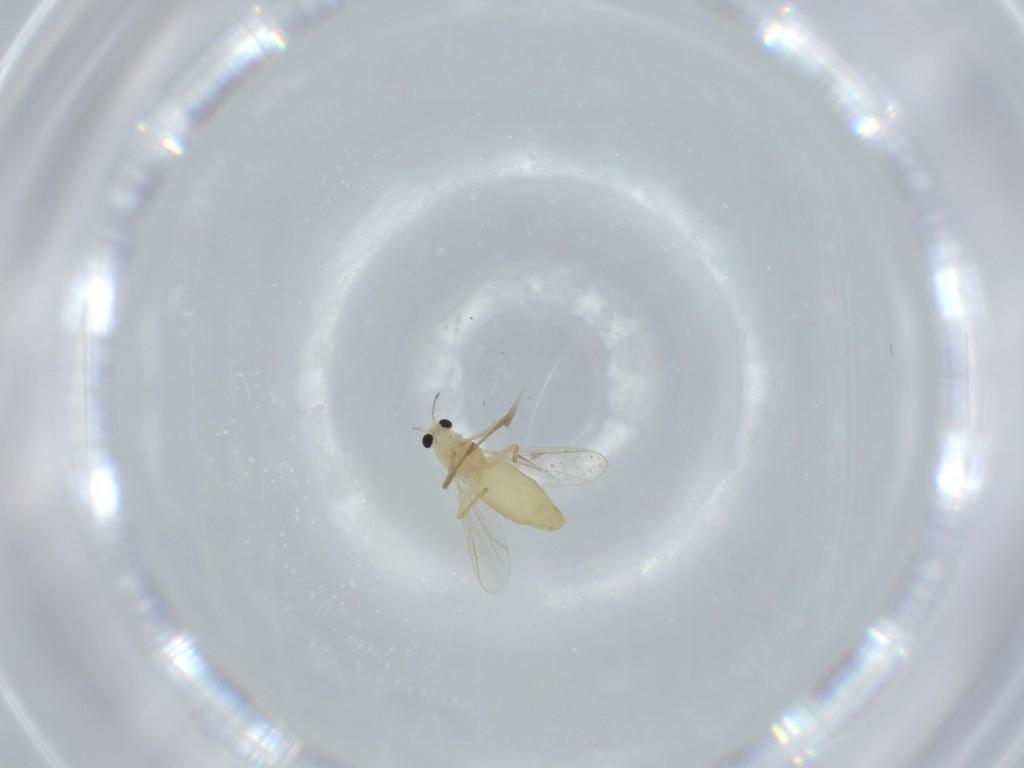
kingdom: Animalia
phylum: Arthropoda
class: Insecta
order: Diptera
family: Chironomidae
